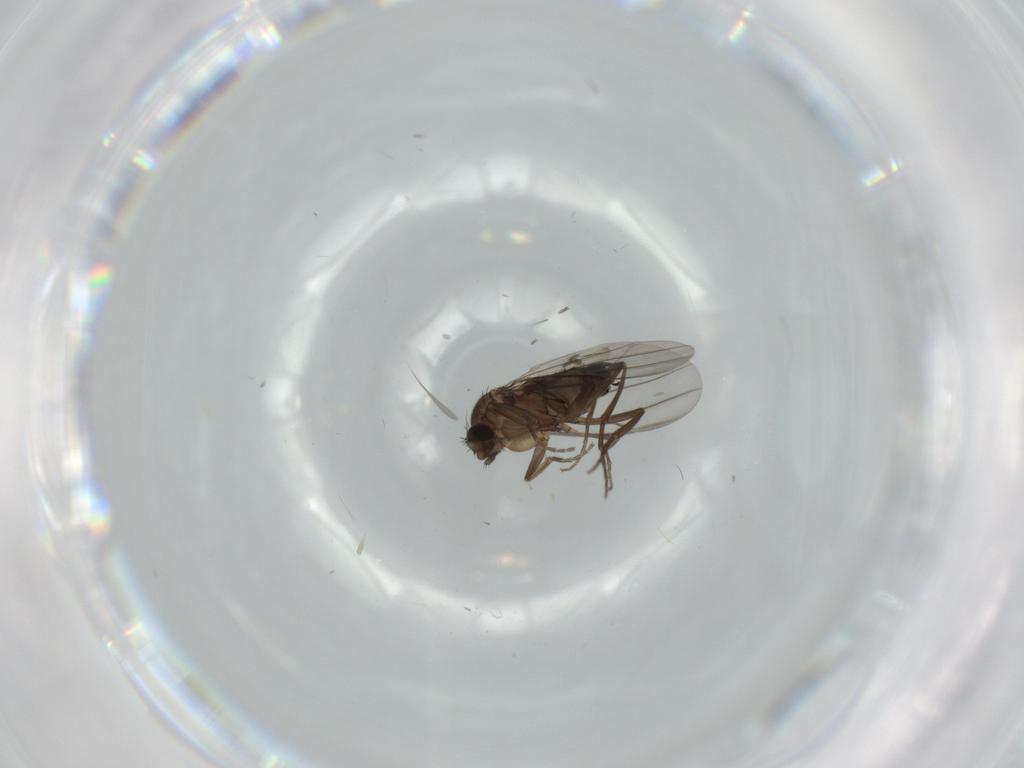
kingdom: Animalia
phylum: Arthropoda
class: Insecta
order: Diptera
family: Cecidomyiidae
